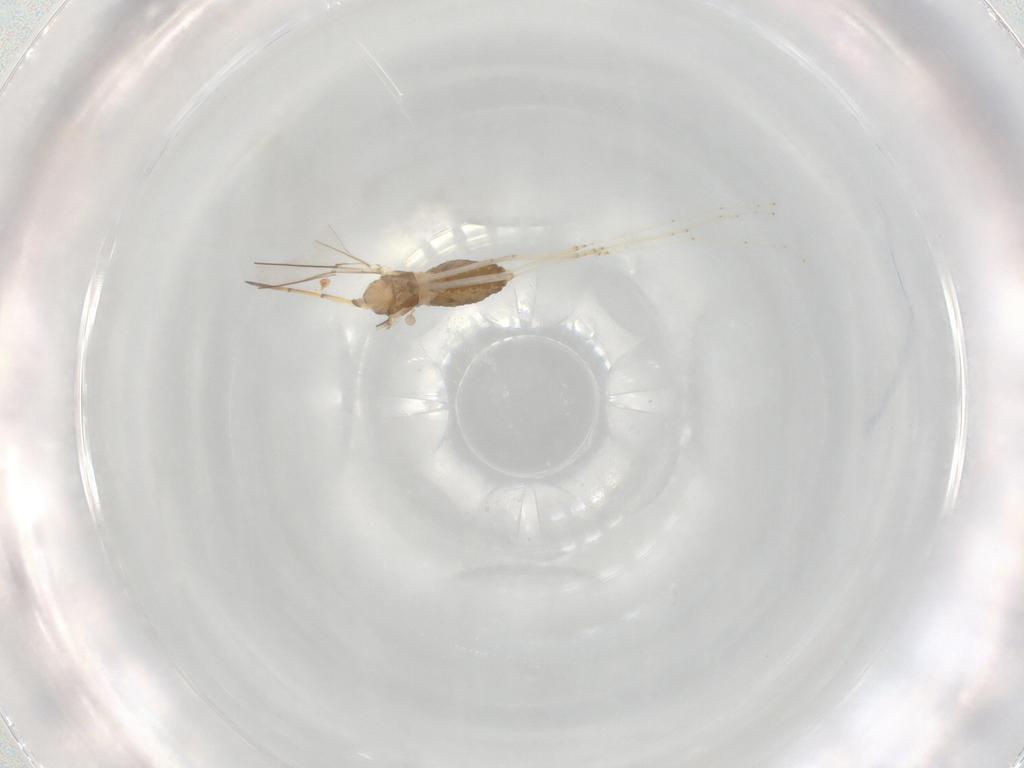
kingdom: Animalia
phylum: Arthropoda
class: Insecta
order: Diptera
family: Cecidomyiidae
